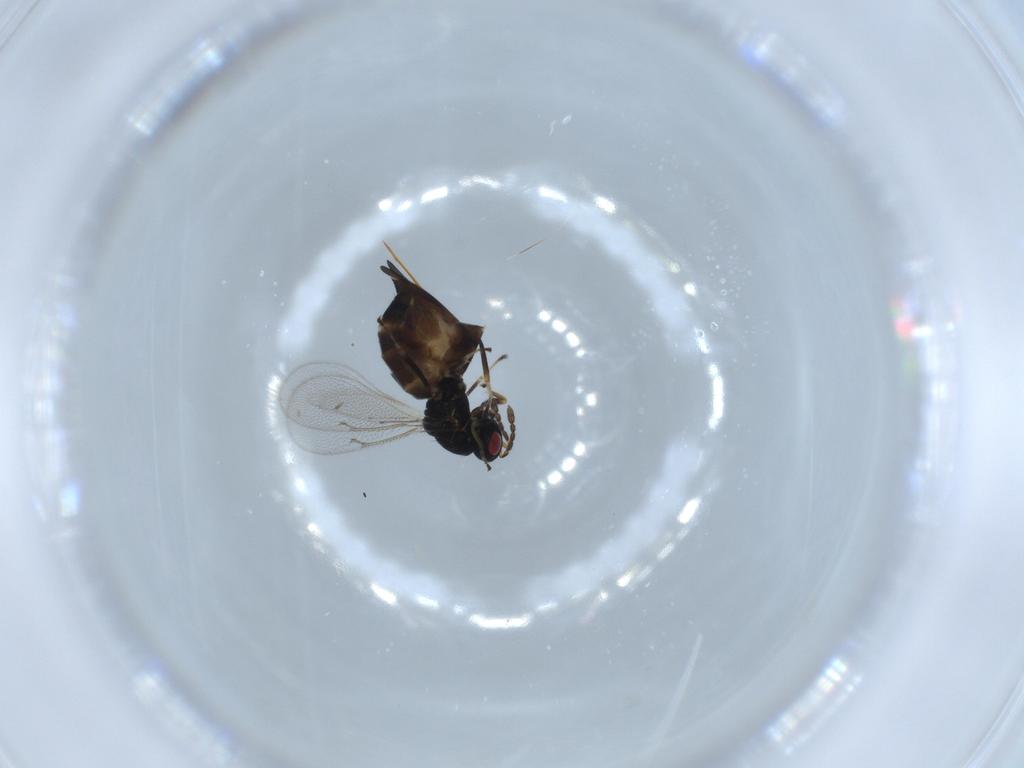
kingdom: Animalia
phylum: Arthropoda
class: Insecta
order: Hymenoptera
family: Eulophidae
